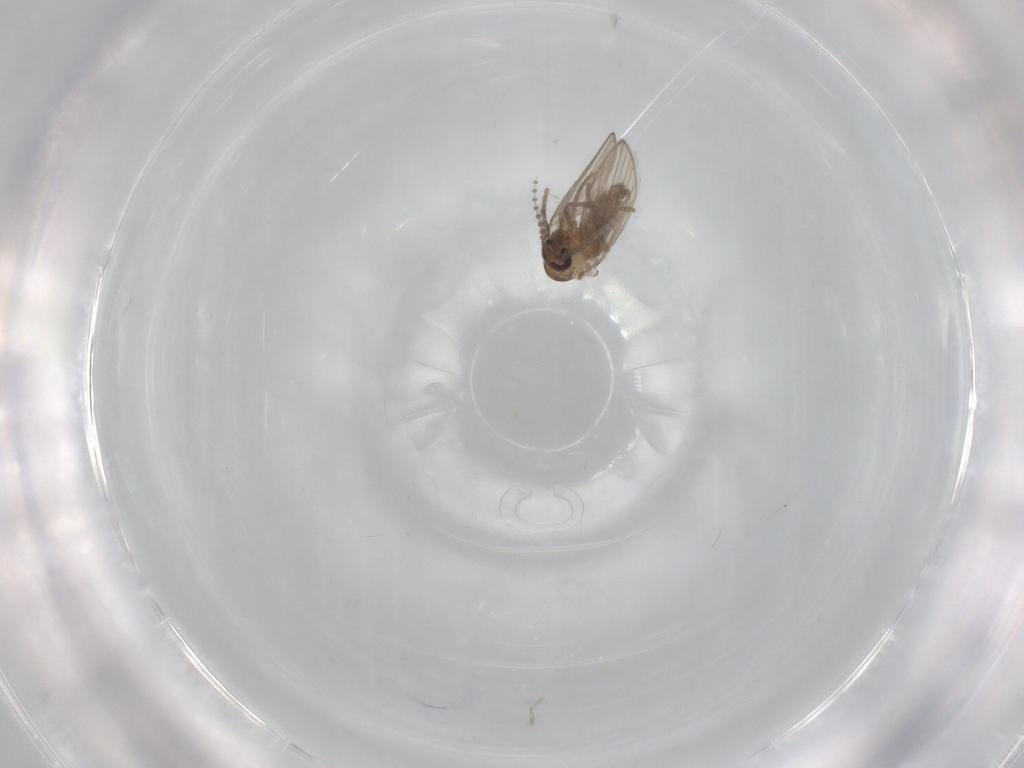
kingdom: Animalia
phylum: Arthropoda
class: Insecta
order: Diptera
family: Psychodidae
